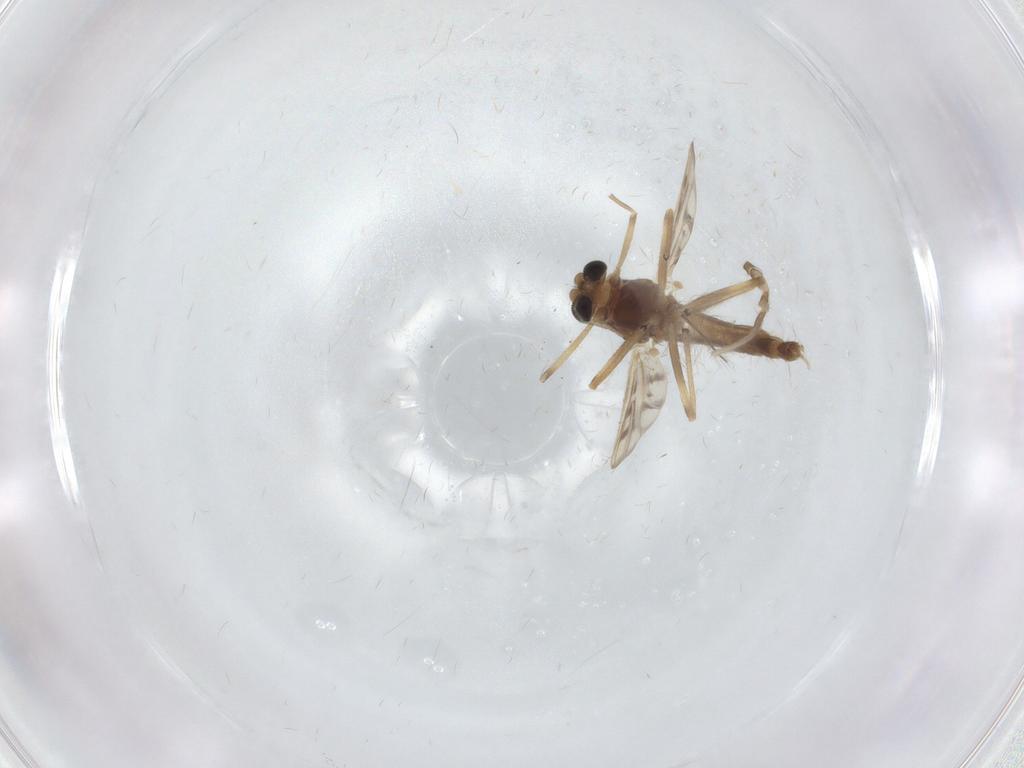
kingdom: Animalia
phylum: Arthropoda
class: Insecta
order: Diptera
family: Chironomidae
